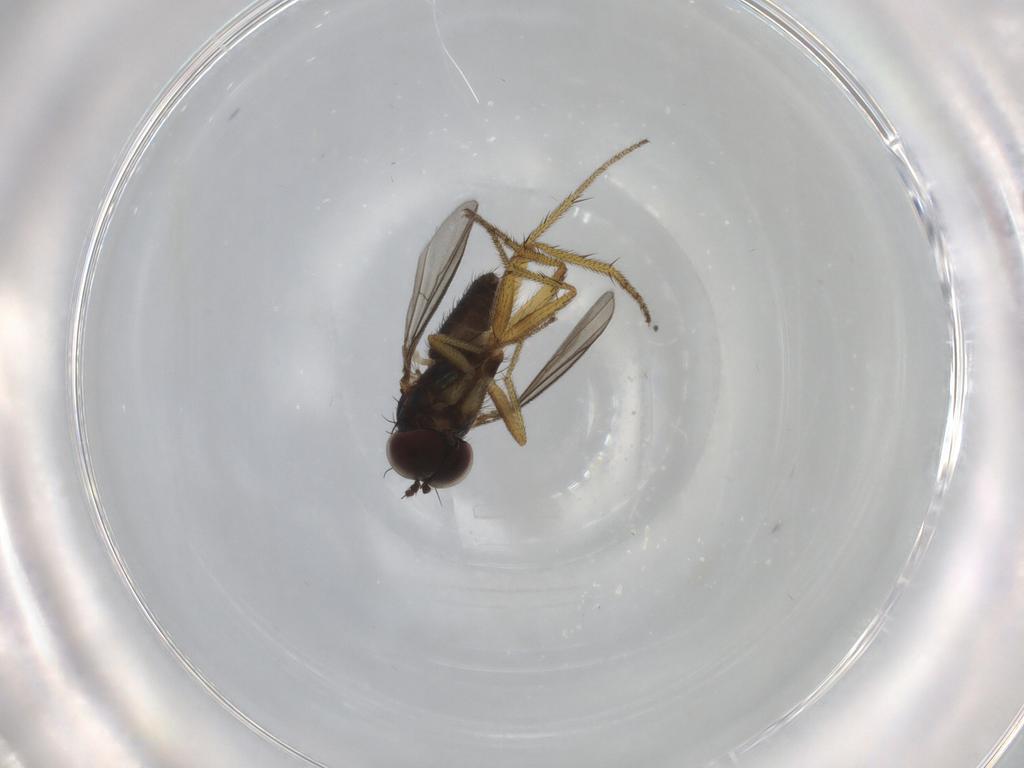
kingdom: Animalia
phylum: Arthropoda
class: Insecta
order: Diptera
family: Dolichopodidae
